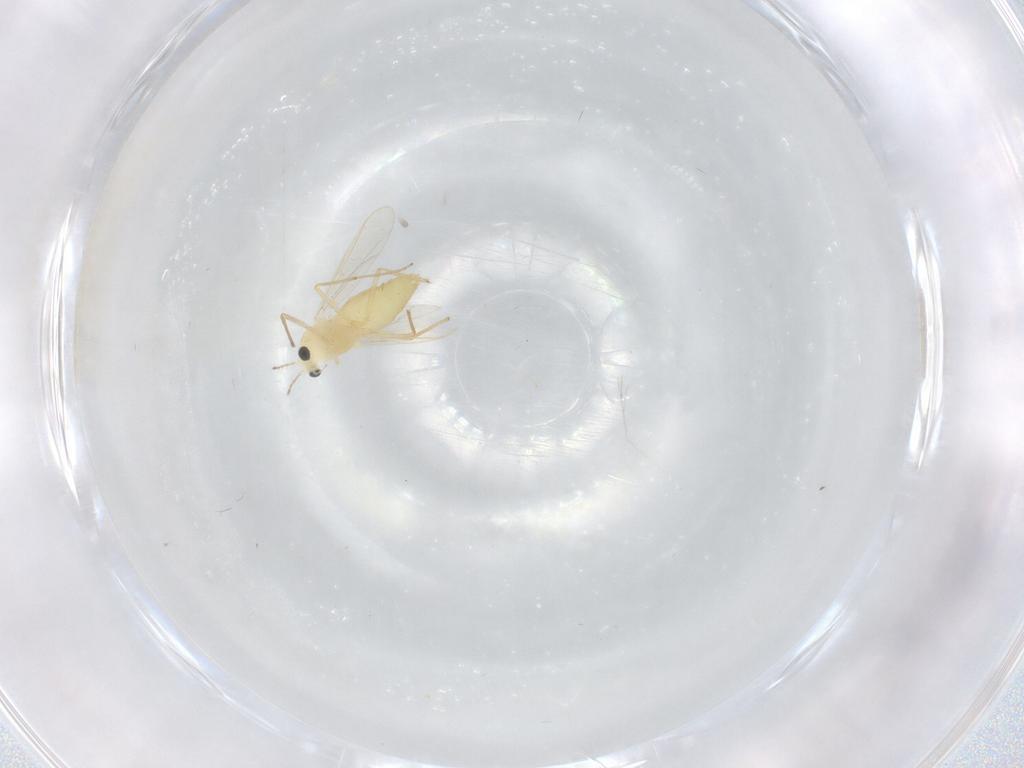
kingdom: Animalia
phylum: Arthropoda
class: Insecta
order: Diptera
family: Chironomidae
